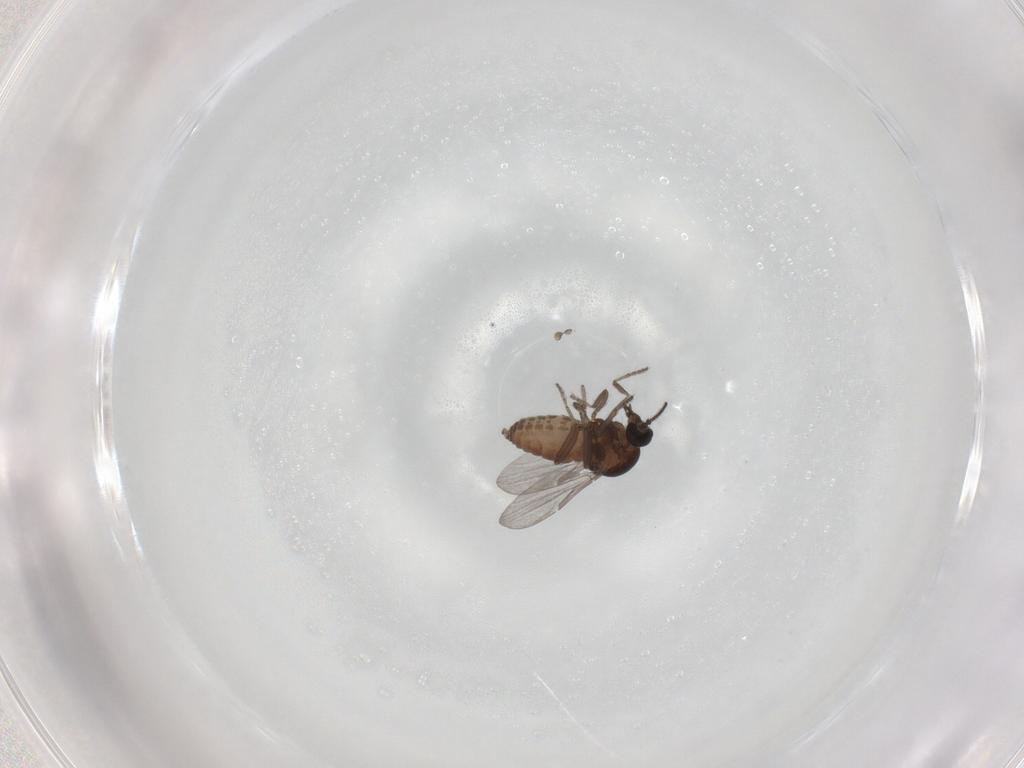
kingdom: Animalia
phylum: Arthropoda
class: Insecta
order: Diptera
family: Ceratopogonidae
